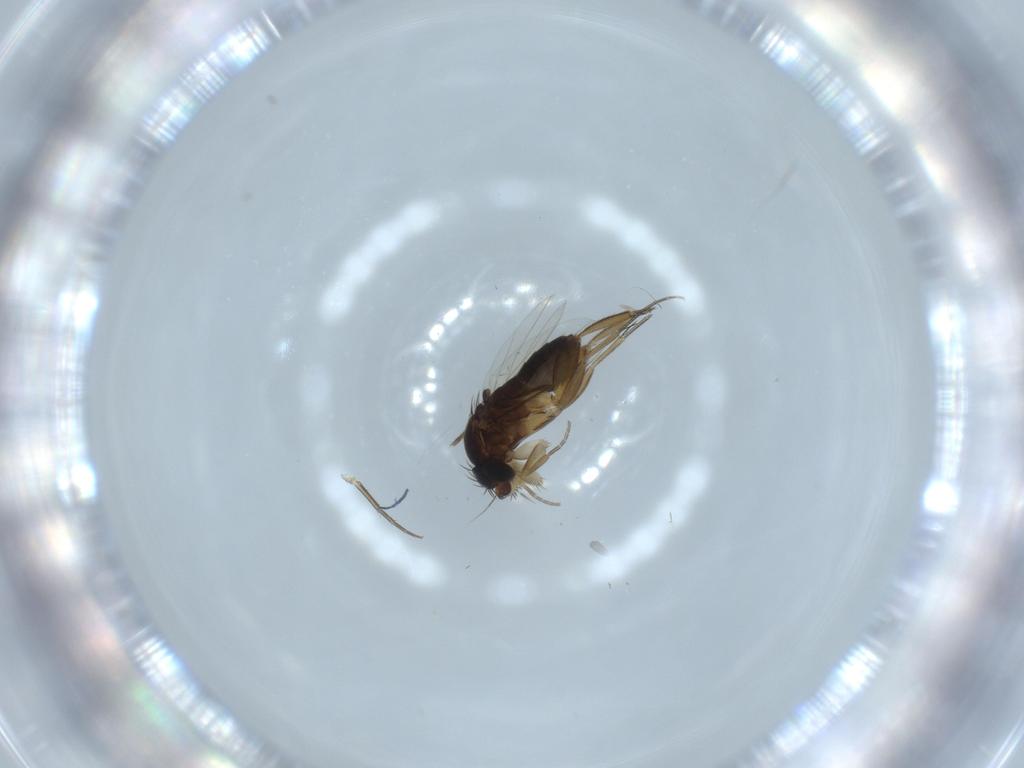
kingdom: Animalia
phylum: Arthropoda
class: Insecta
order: Diptera
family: Phoridae
